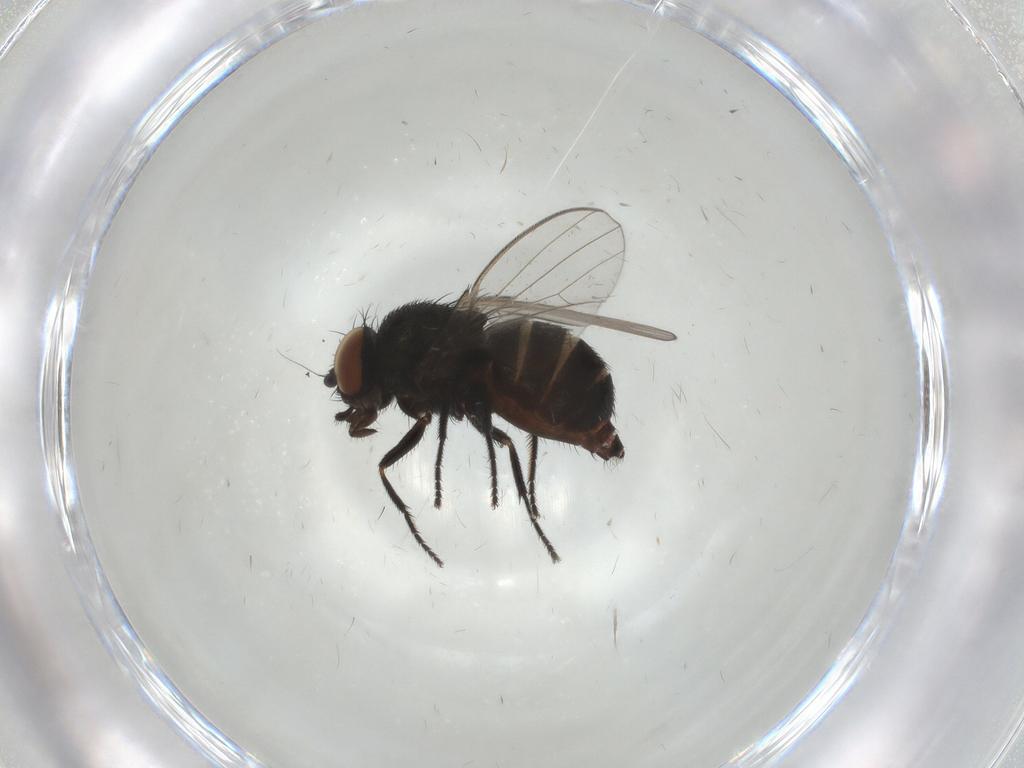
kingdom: Animalia
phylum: Arthropoda
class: Insecta
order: Diptera
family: Milichiidae
